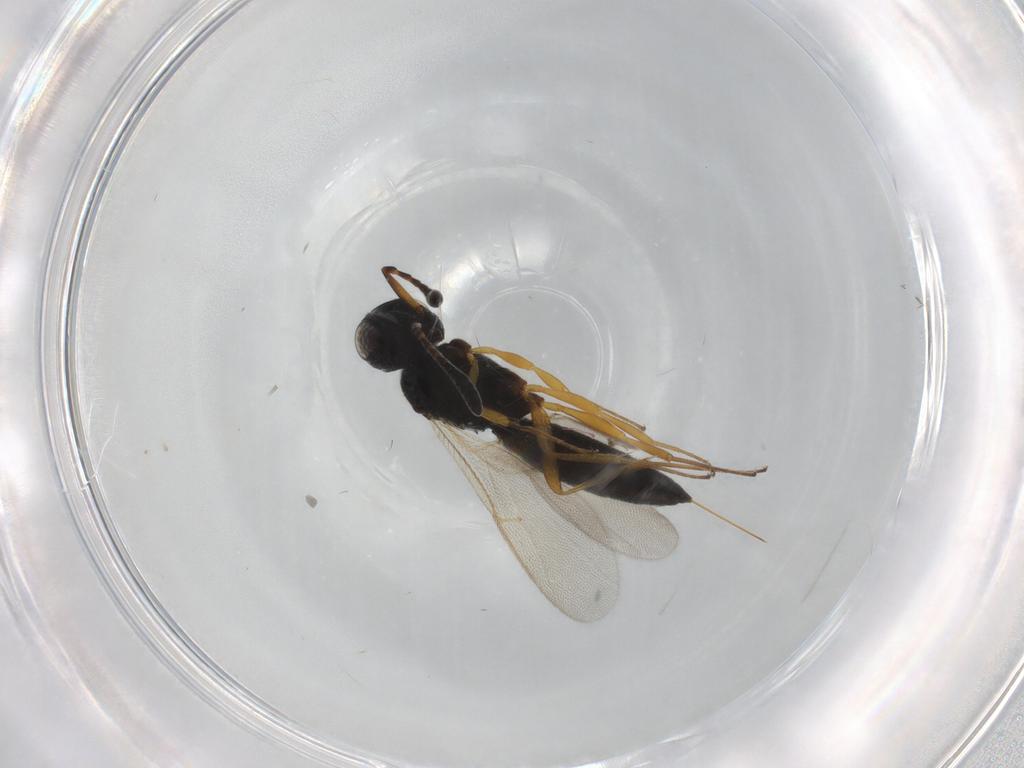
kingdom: Animalia
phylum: Arthropoda
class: Insecta
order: Hymenoptera
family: Scelionidae
